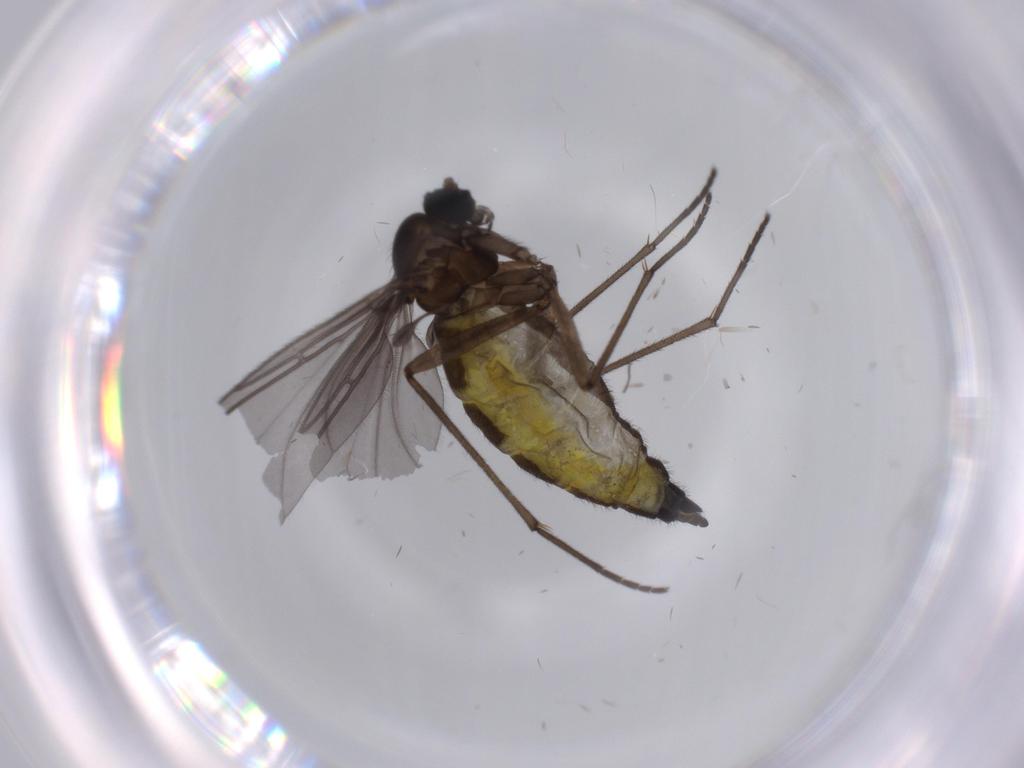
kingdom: Animalia
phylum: Arthropoda
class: Insecta
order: Diptera
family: Sciaridae
